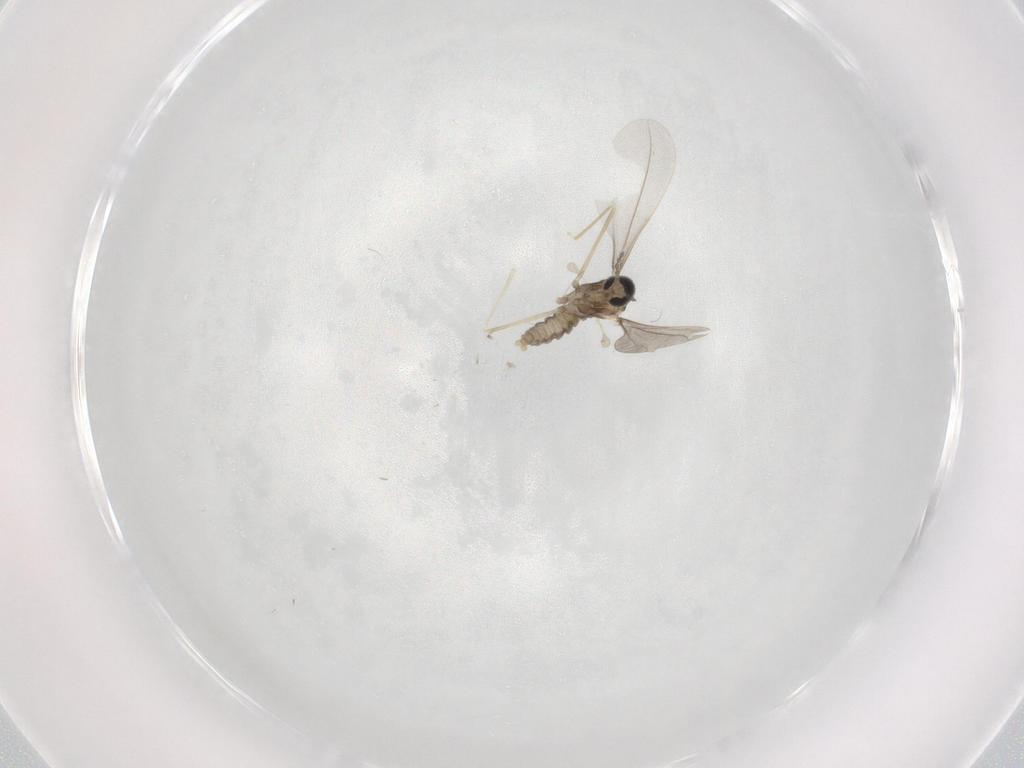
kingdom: Animalia
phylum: Arthropoda
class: Insecta
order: Diptera
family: Cecidomyiidae
